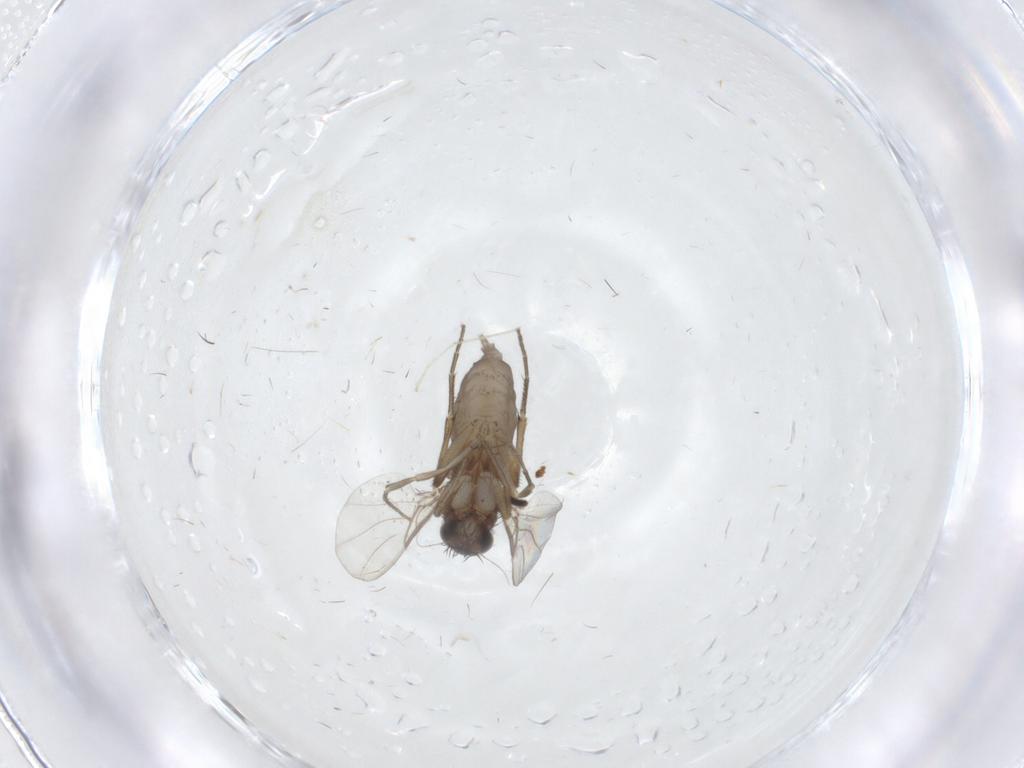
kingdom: Animalia
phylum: Arthropoda
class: Insecta
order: Diptera
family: Phoridae
